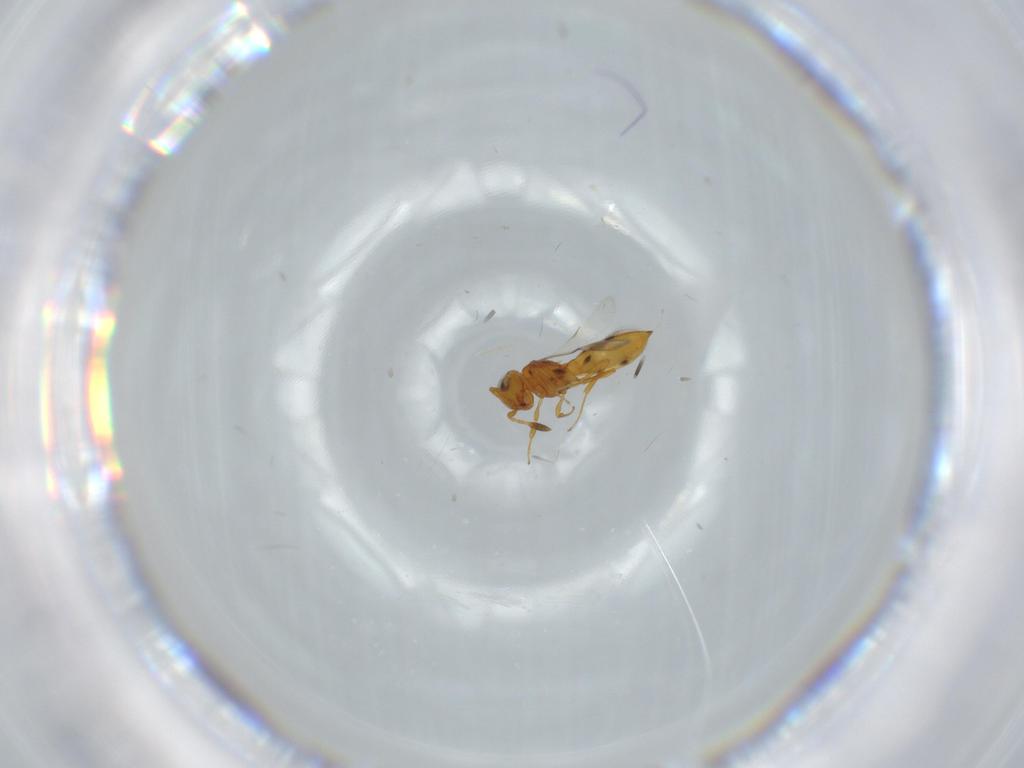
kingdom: Animalia
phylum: Arthropoda
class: Insecta
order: Hymenoptera
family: Scelionidae
